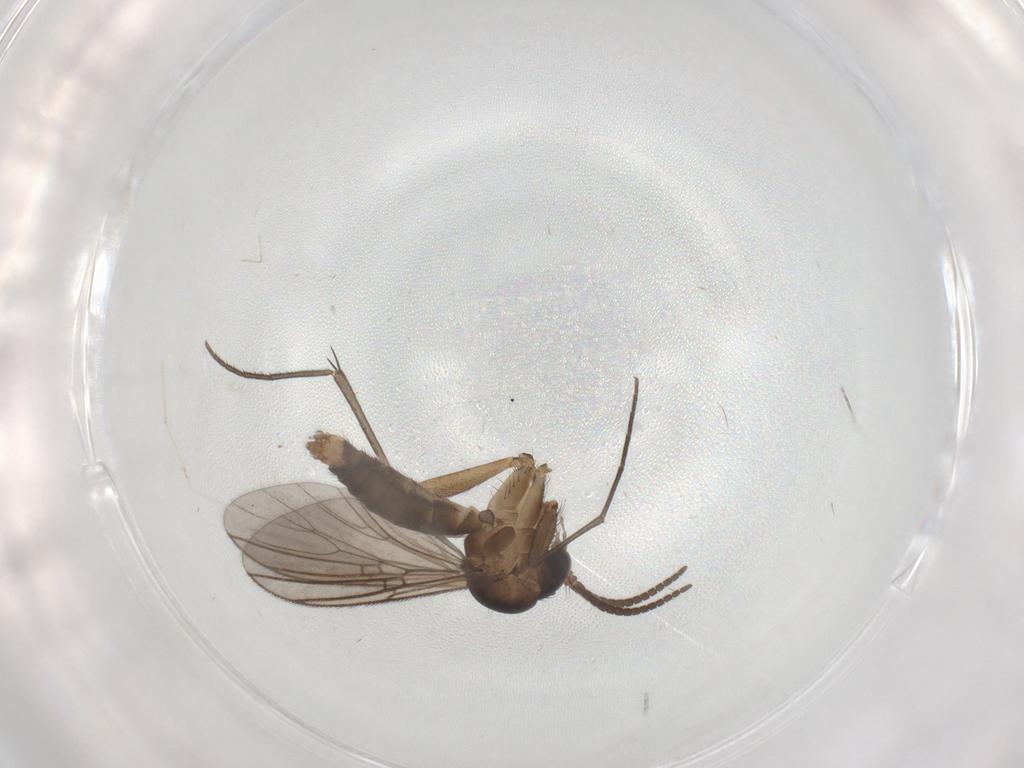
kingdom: Animalia
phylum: Arthropoda
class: Insecta
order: Diptera
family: Mycetophilidae
